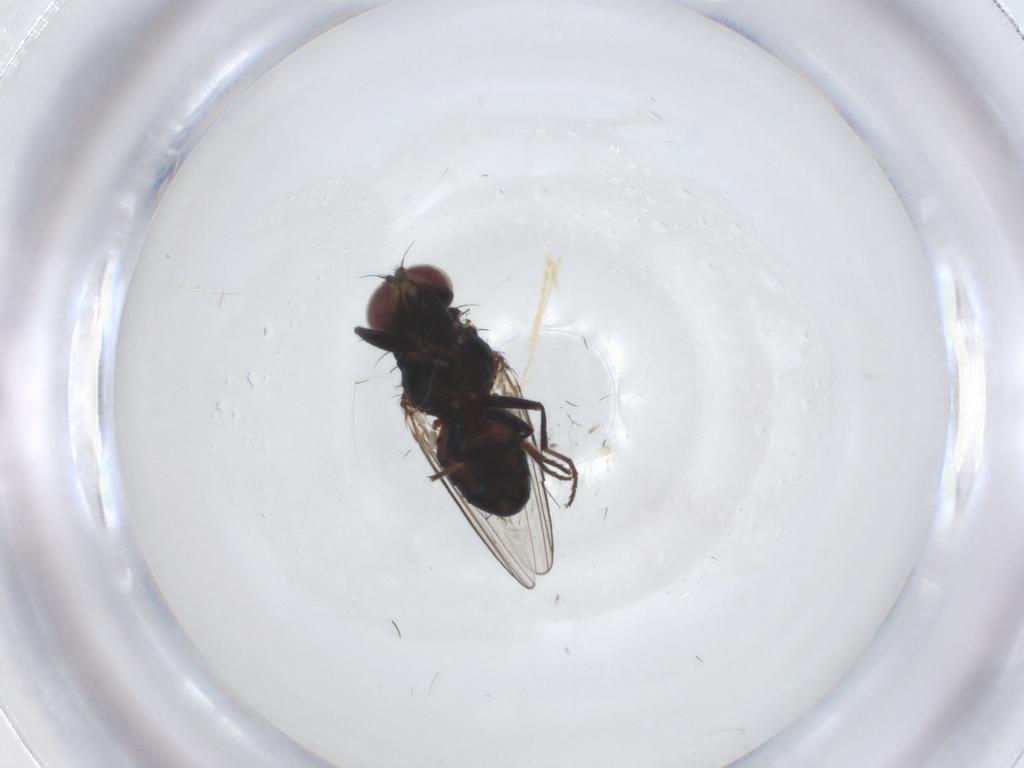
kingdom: Animalia
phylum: Arthropoda
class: Insecta
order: Diptera
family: Carnidae
